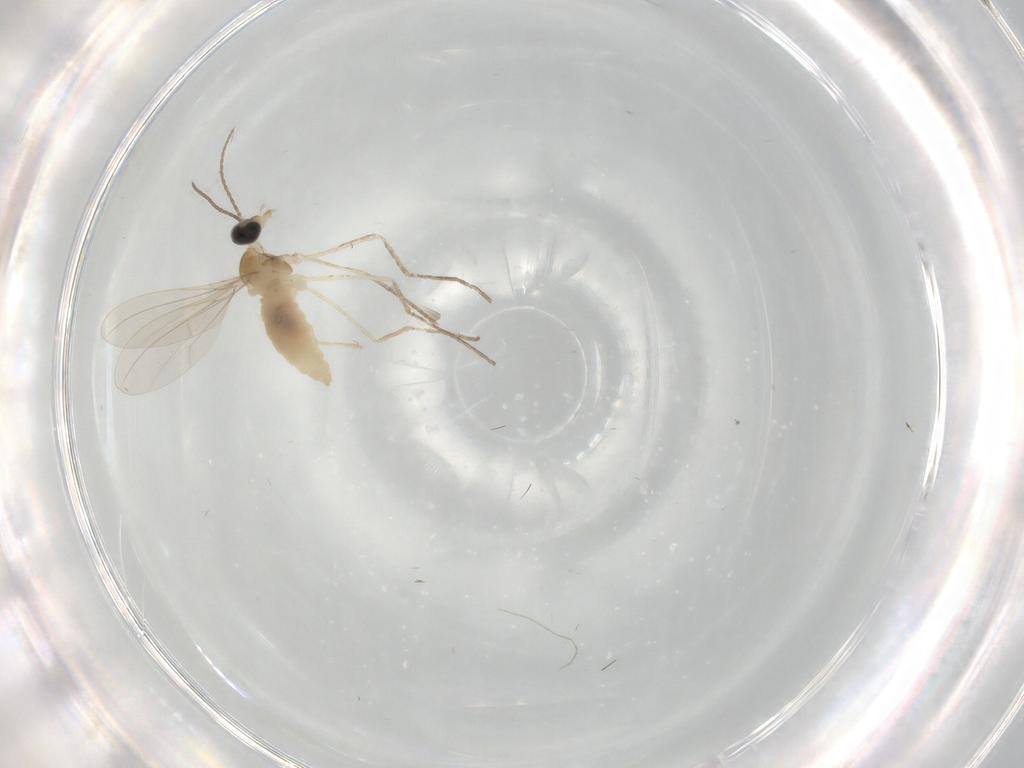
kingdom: Animalia
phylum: Arthropoda
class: Insecta
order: Diptera
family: Cecidomyiidae
